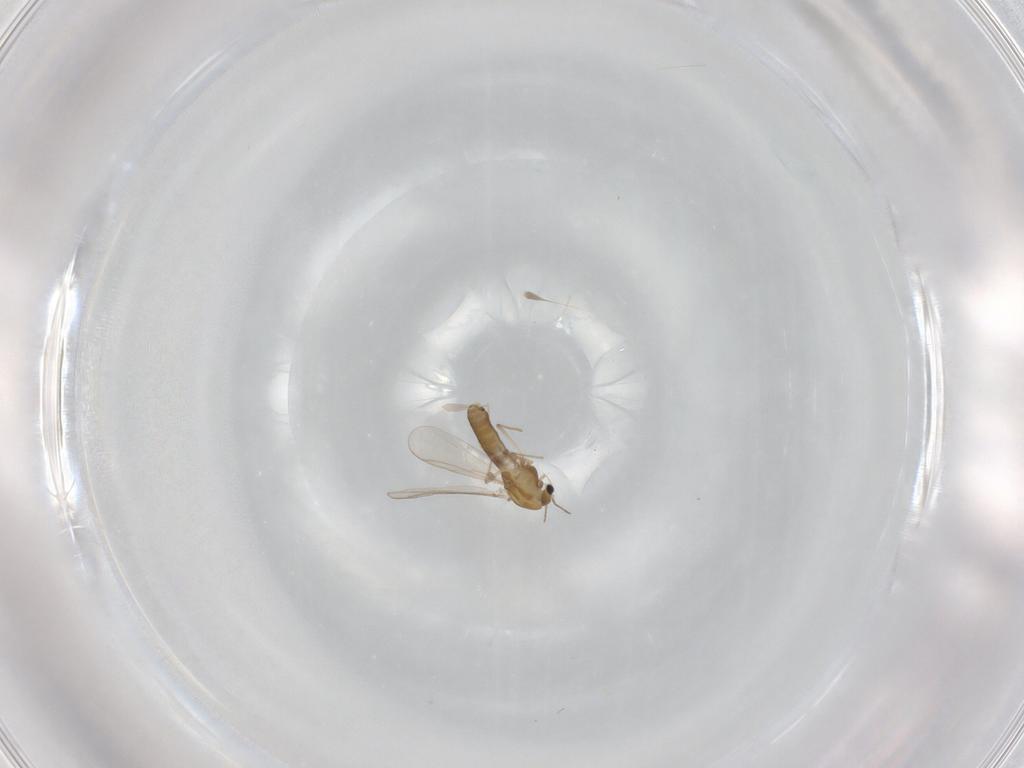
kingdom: Animalia
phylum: Arthropoda
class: Insecta
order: Diptera
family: Chironomidae
